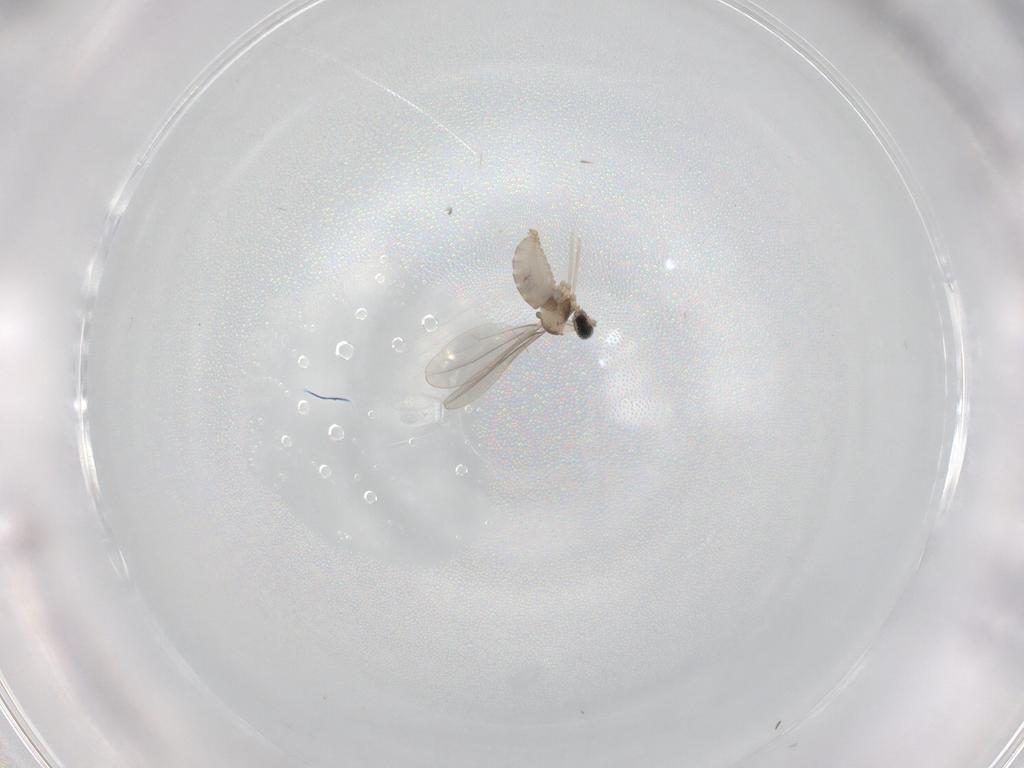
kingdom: Animalia
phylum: Arthropoda
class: Insecta
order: Diptera
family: Cecidomyiidae
